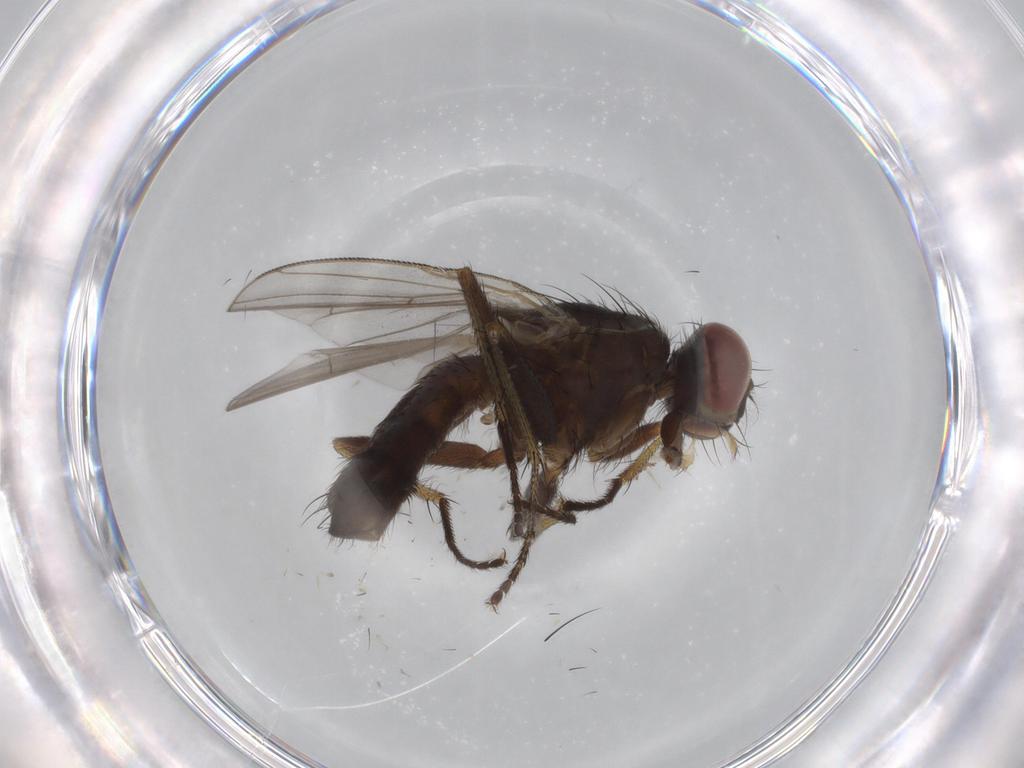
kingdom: Animalia
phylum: Arthropoda
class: Insecta
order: Diptera
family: Muscidae
